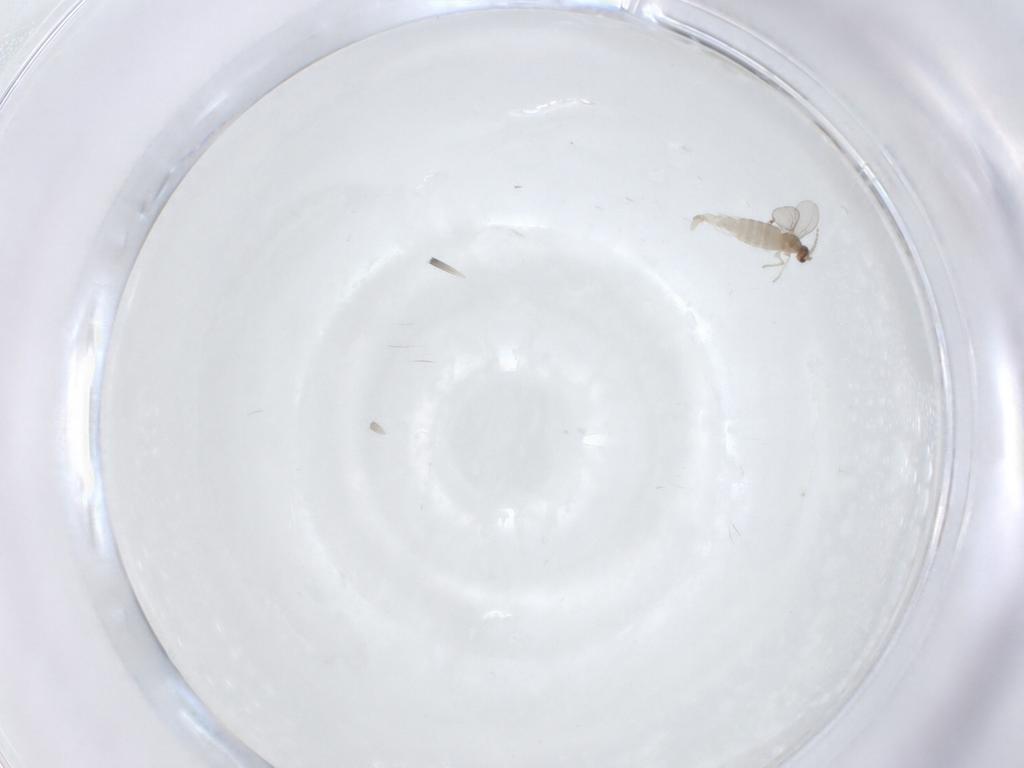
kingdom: Animalia
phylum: Arthropoda
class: Insecta
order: Diptera
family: Cecidomyiidae
